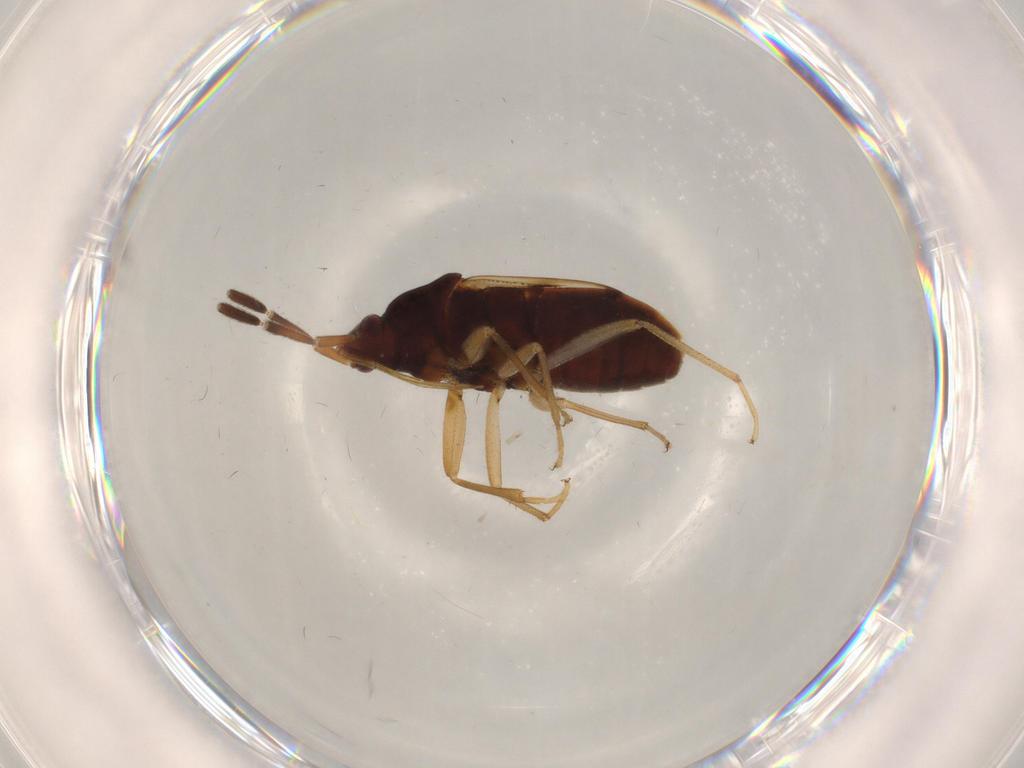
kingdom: Animalia
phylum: Arthropoda
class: Insecta
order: Hemiptera
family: Rhyparochromidae
